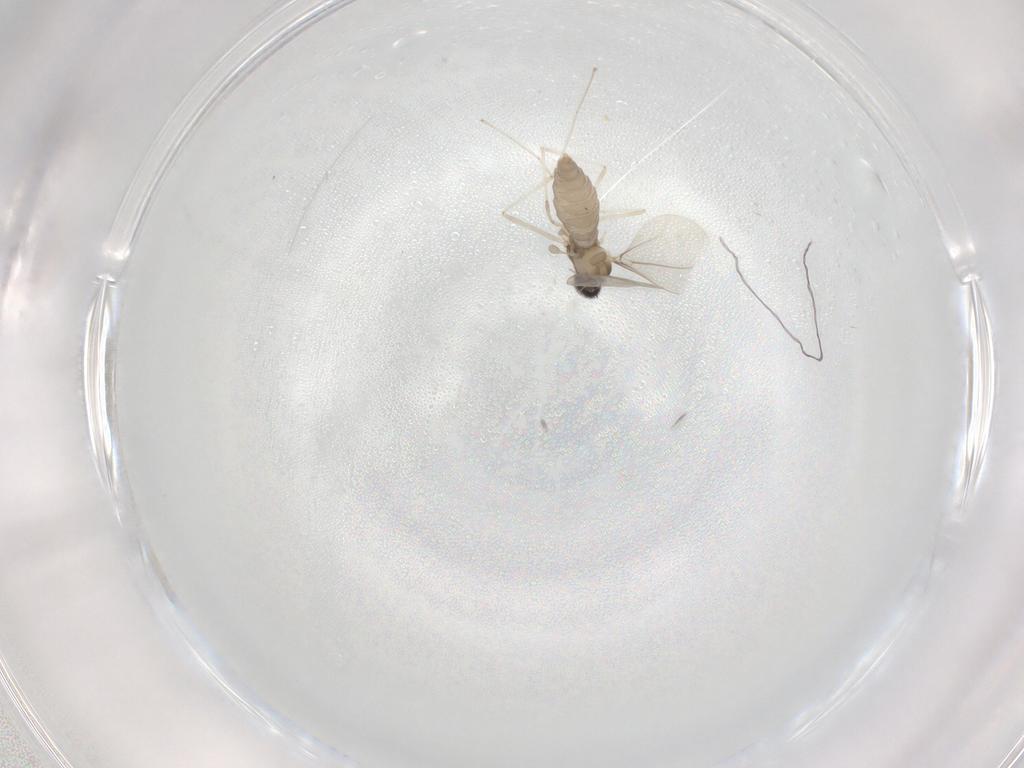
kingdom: Animalia
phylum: Arthropoda
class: Insecta
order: Diptera
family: Cecidomyiidae
